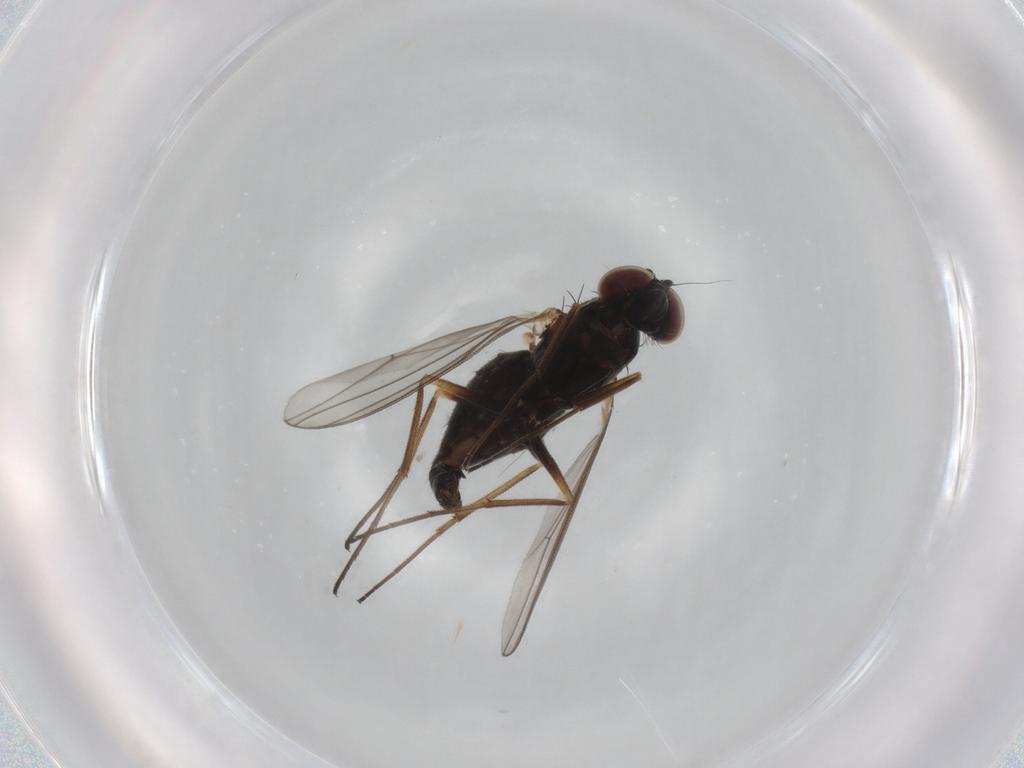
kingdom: Animalia
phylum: Arthropoda
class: Insecta
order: Diptera
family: Dolichopodidae
